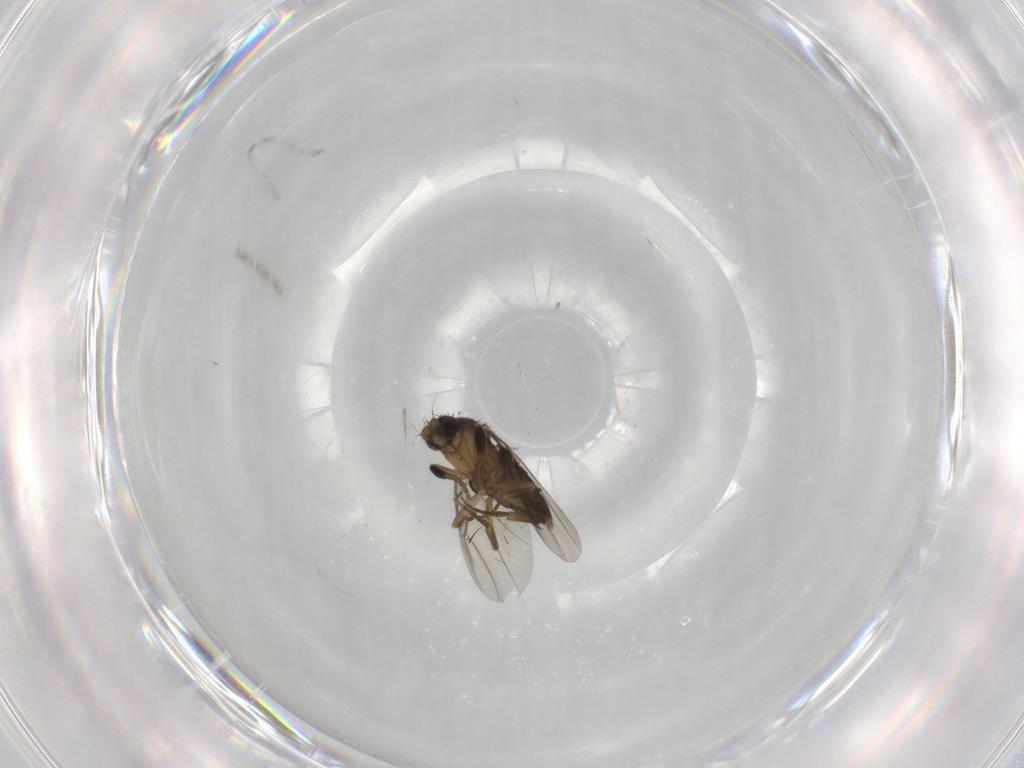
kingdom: Animalia
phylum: Arthropoda
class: Insecta
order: Diptera
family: Phoridae
